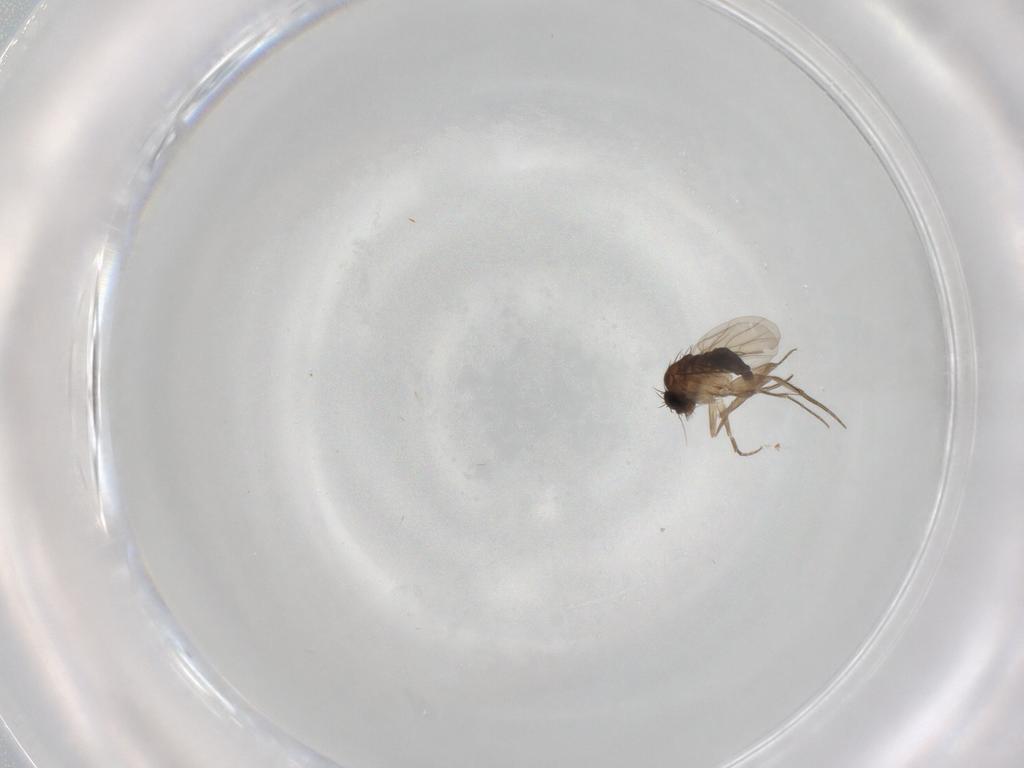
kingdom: Animalia
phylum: Arthropoda
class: Insecta
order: Diptera
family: Phoridae
